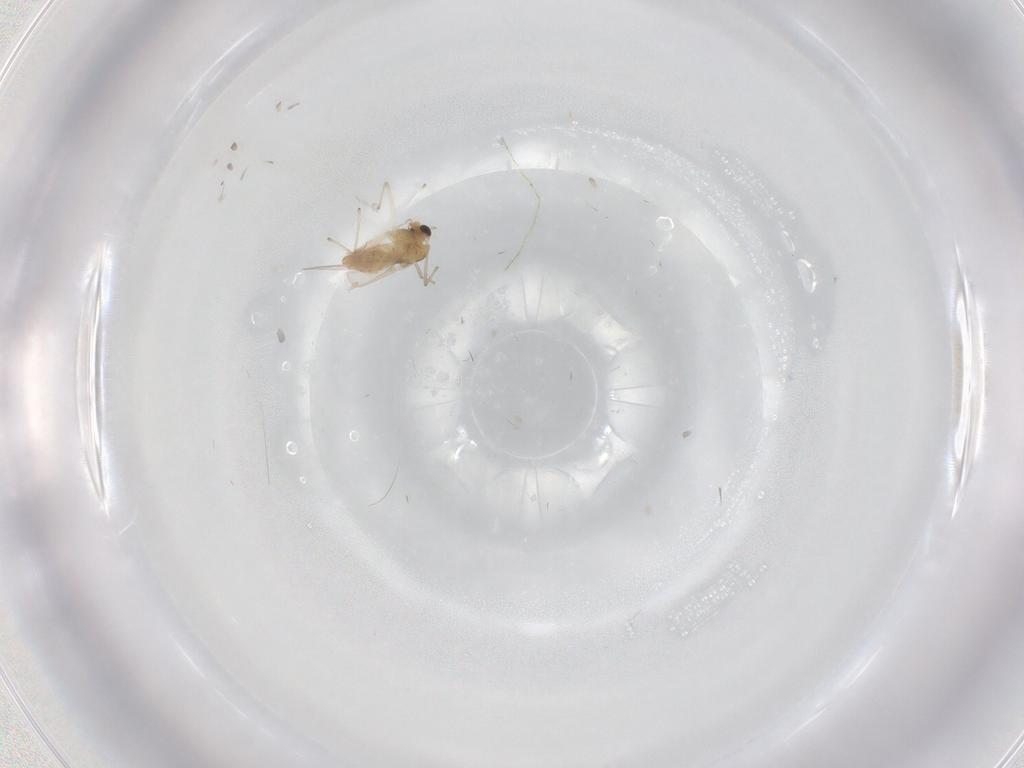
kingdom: Animalia
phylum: Arthropoda
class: Insecta
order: Diptera
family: Chironomidae
